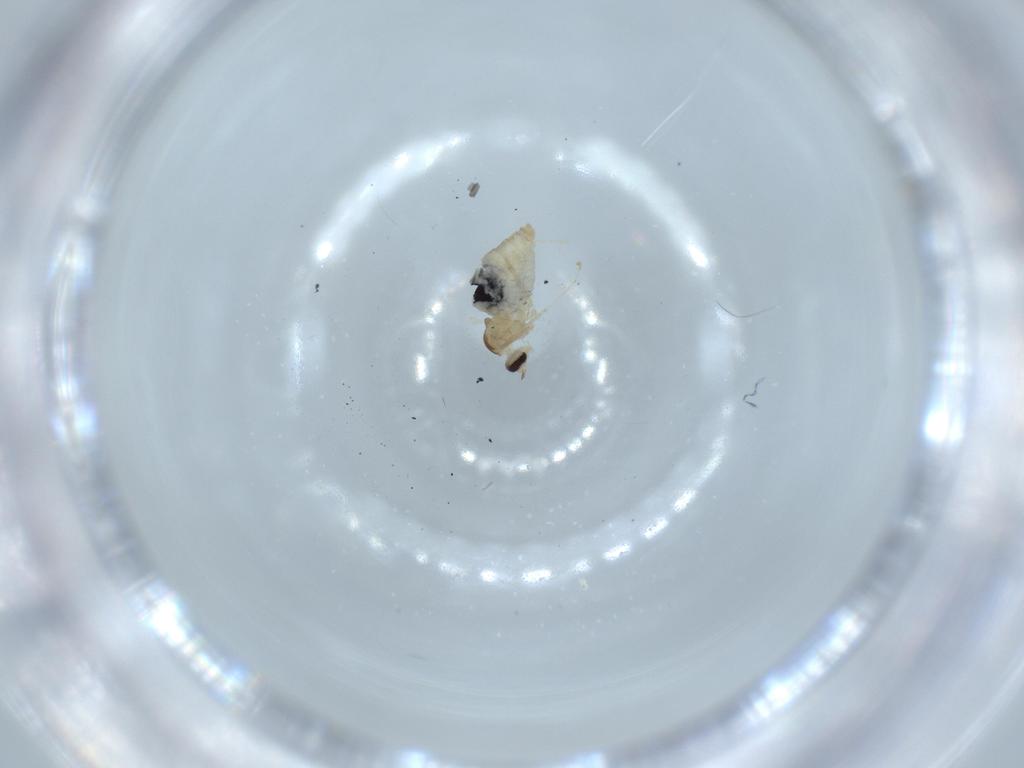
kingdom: Animalia
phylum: Arthropoda
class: Insecta
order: Diptera
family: Cecidomyiidae
